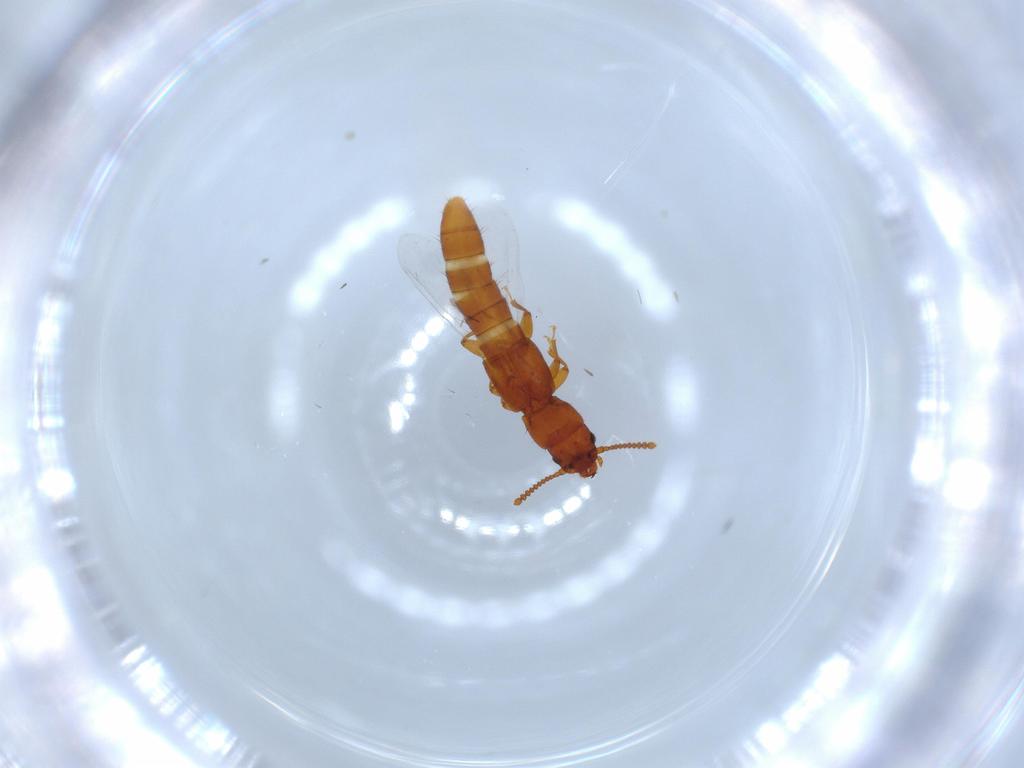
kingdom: Animalia
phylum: Arthropoda
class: Insecta
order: Coleoptera
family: Staphylinidae
